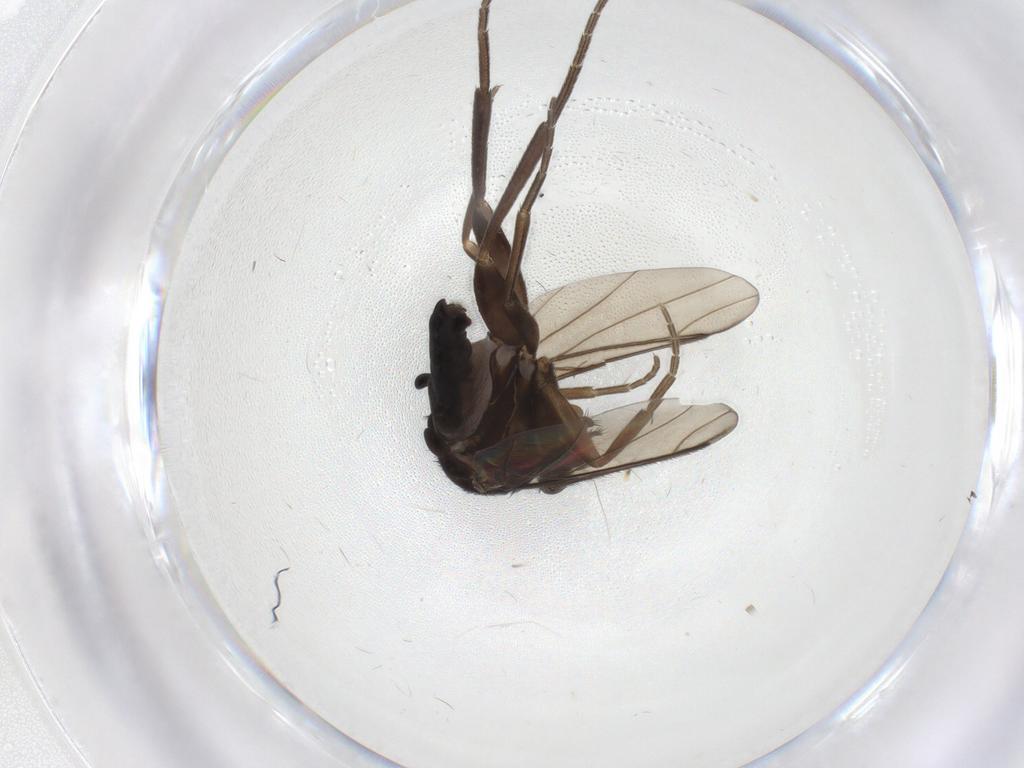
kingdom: Animalia
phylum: Arthropoda
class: Insecta
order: Diptera
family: Phoridae
